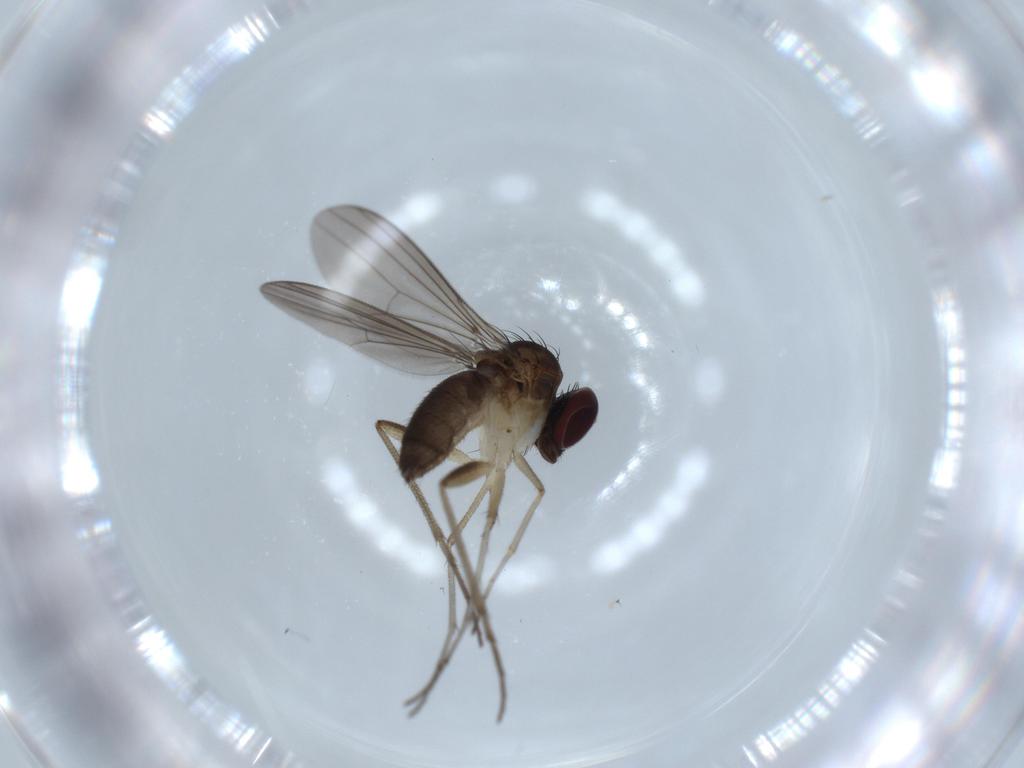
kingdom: Animalia
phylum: Arthropoda
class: Insecta
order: Diptera
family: Dolichopodidae
